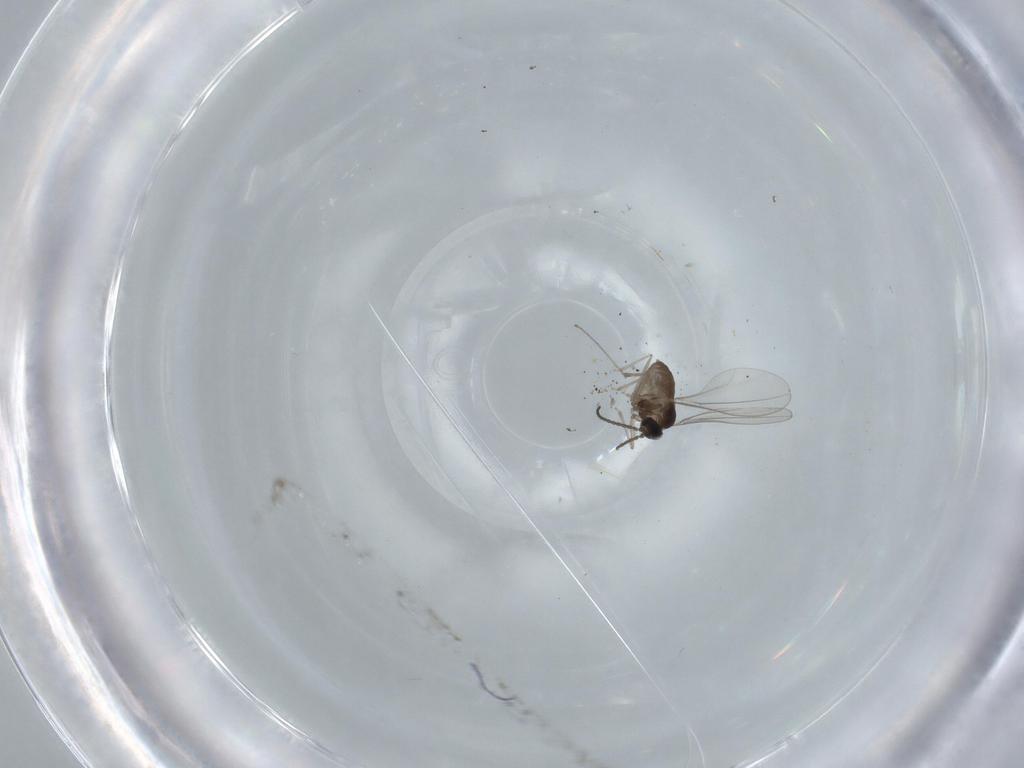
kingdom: Animalia
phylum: Arthropoda
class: Insecta
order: Diptera
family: Cecidomyiidae
